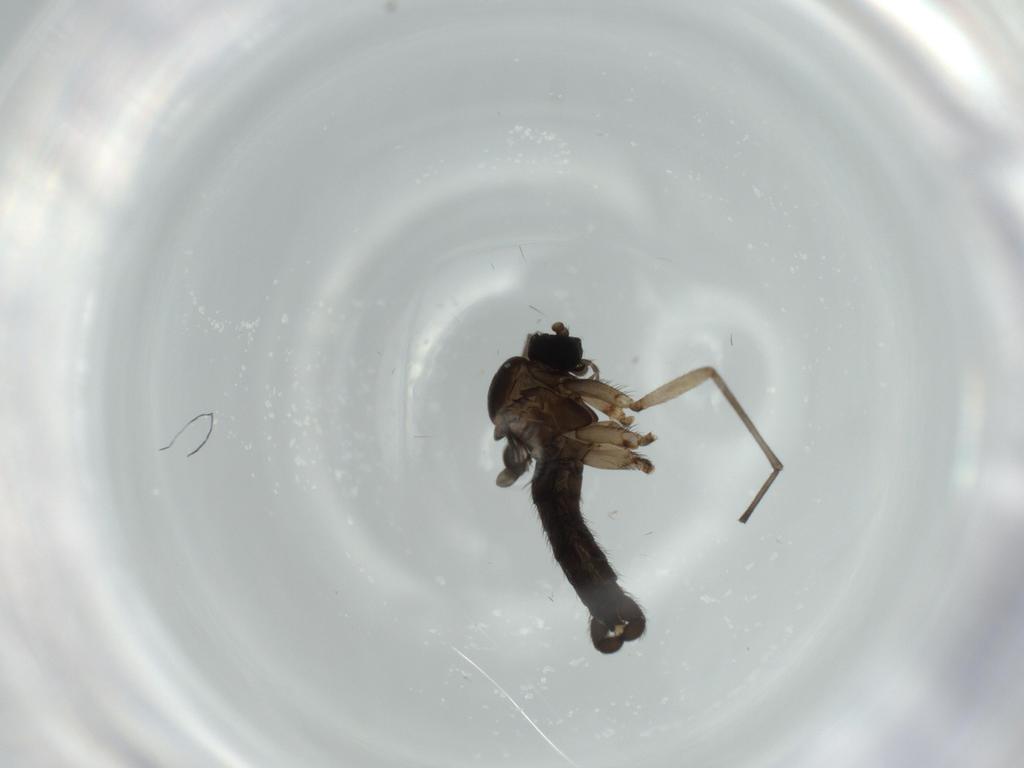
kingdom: Animalia
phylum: Arthropoda
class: Insecta
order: Diptera
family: Sciaridae
